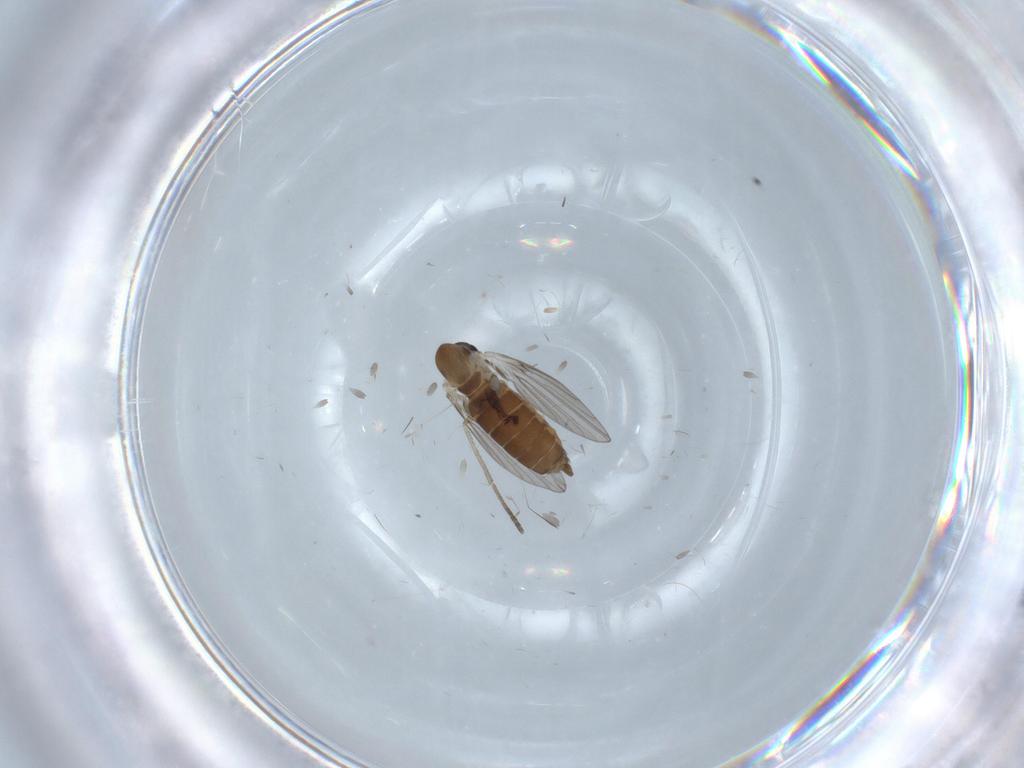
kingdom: Animalia
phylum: Arthropoda
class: Insecta
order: Diptera
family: Psychodidae
